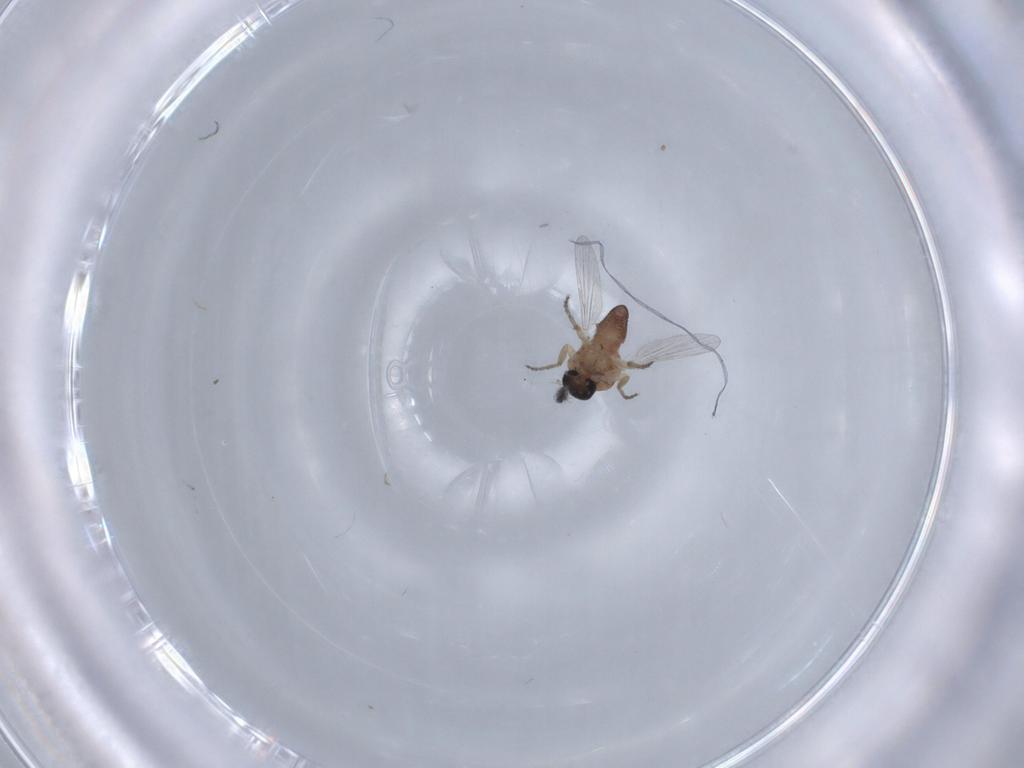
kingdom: Animalia
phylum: Arthropoda
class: Insecta
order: Diptera
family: Ceratopogonidae
